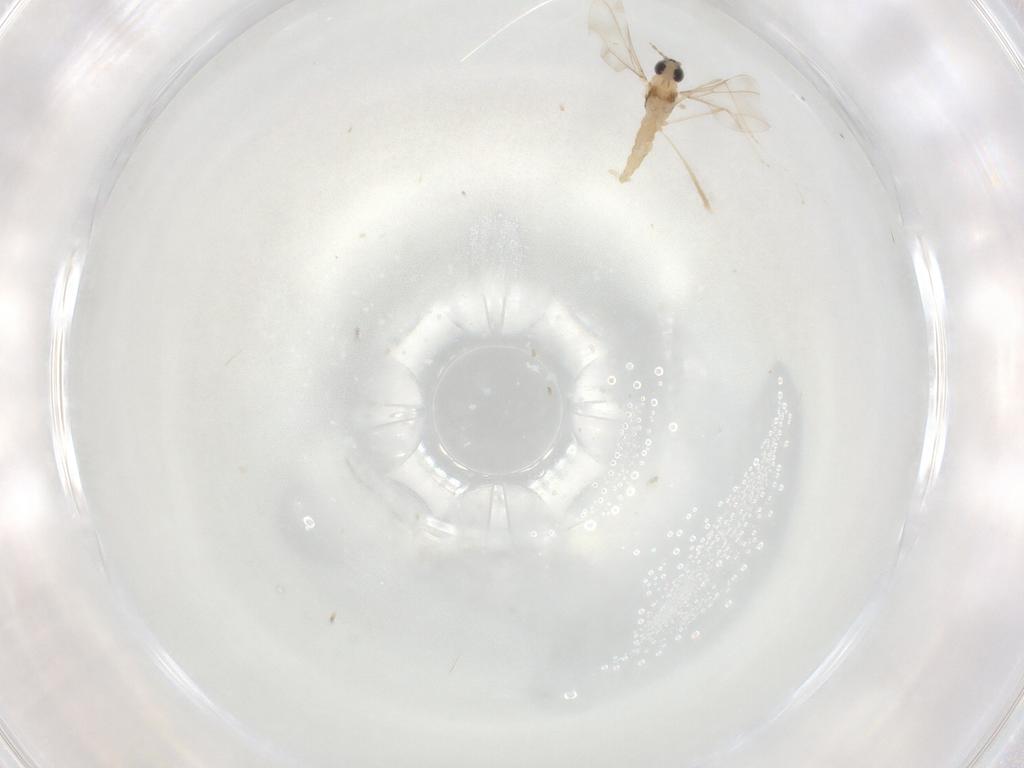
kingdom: Animalia
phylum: Arthropoda
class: Insecta
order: Diptera
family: Cecidomyiidae
